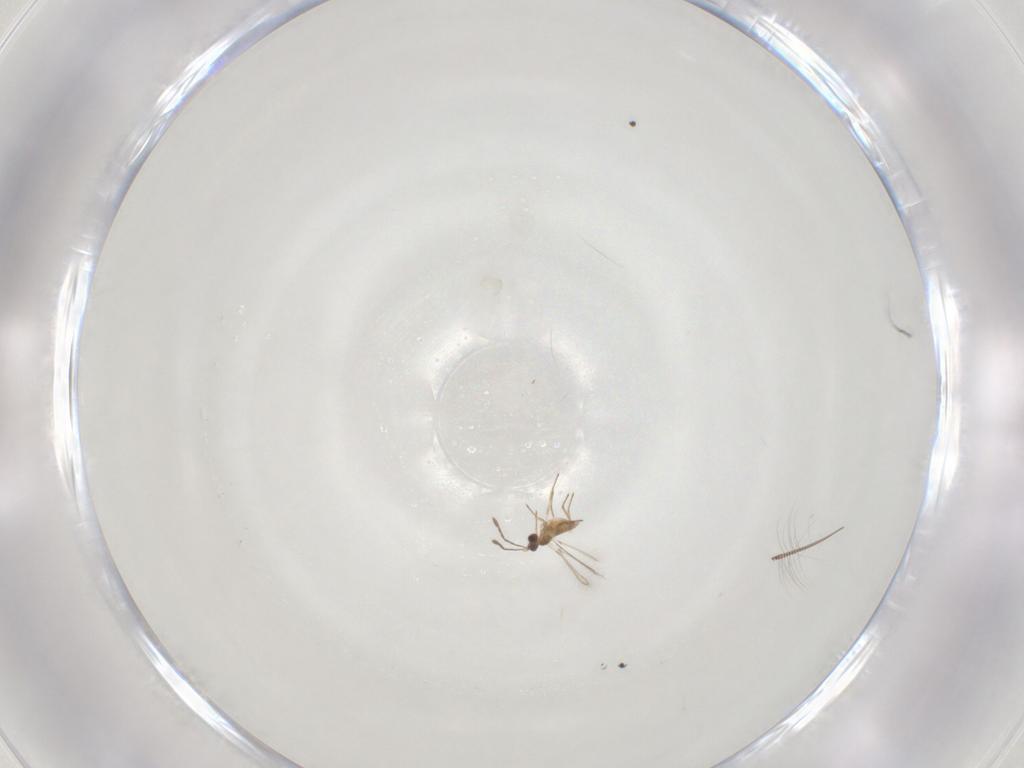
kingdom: Animalia
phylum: Arthropoda
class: Insecta
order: Hymenoptera
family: Mymaridae
